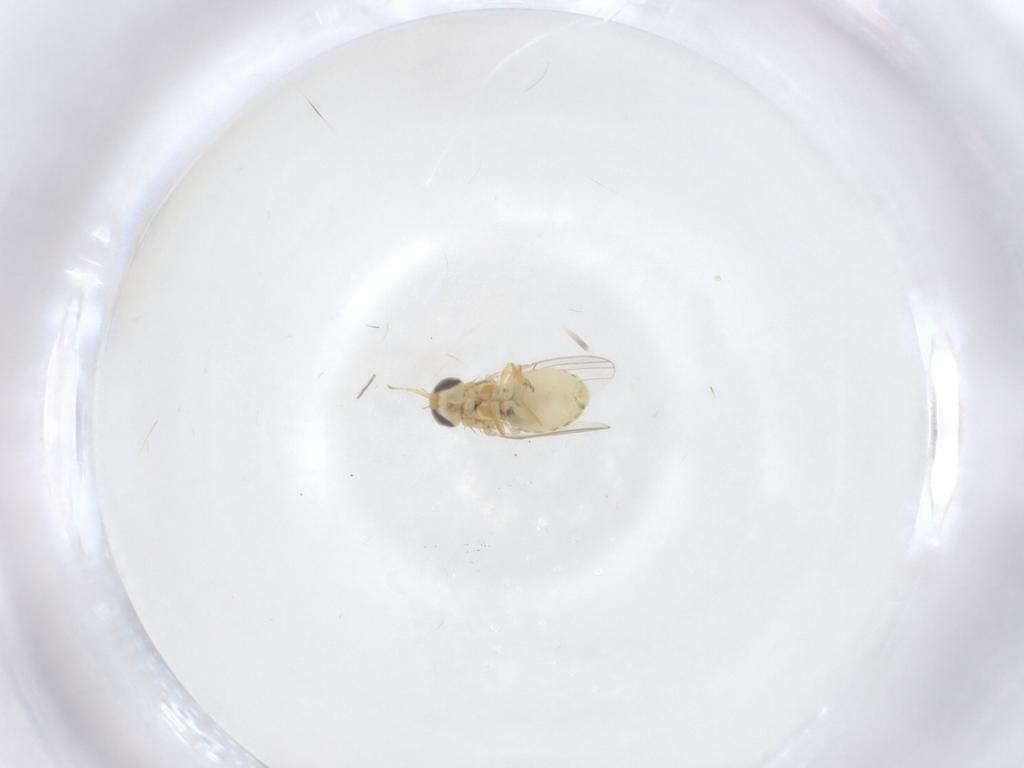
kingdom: Animalia
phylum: Arthropoda
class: Insecta
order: Diptera
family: Chyromyidae
